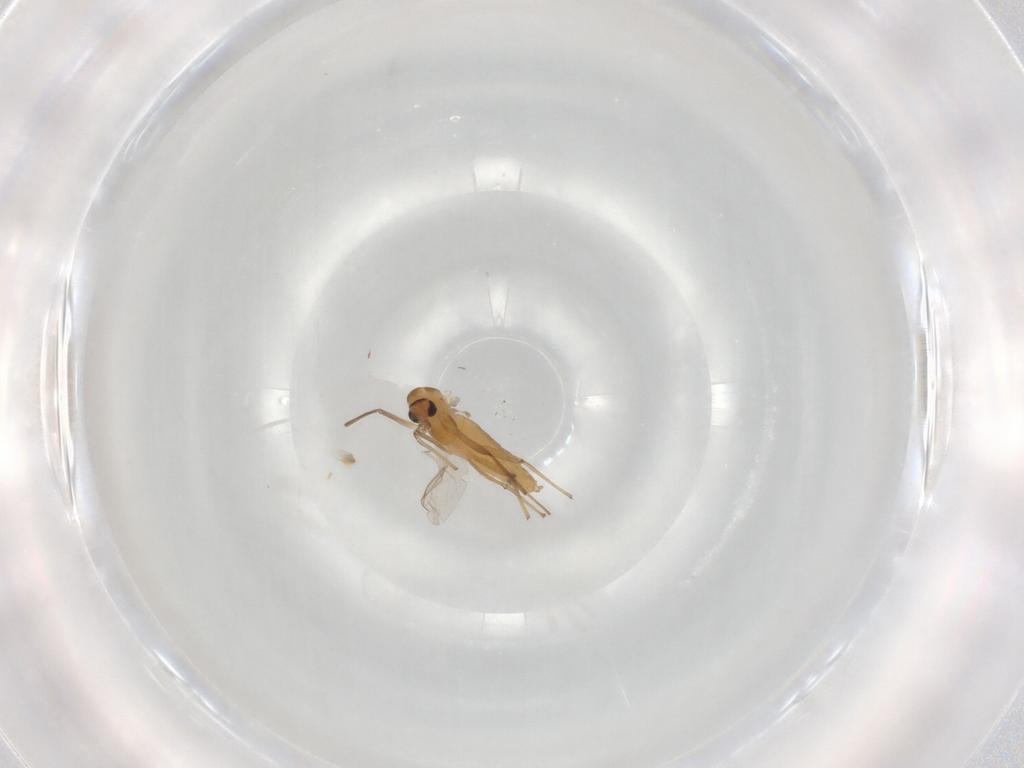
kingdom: Animalia
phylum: Arthropoda
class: Insecta
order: Diptera
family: Chironomidae
